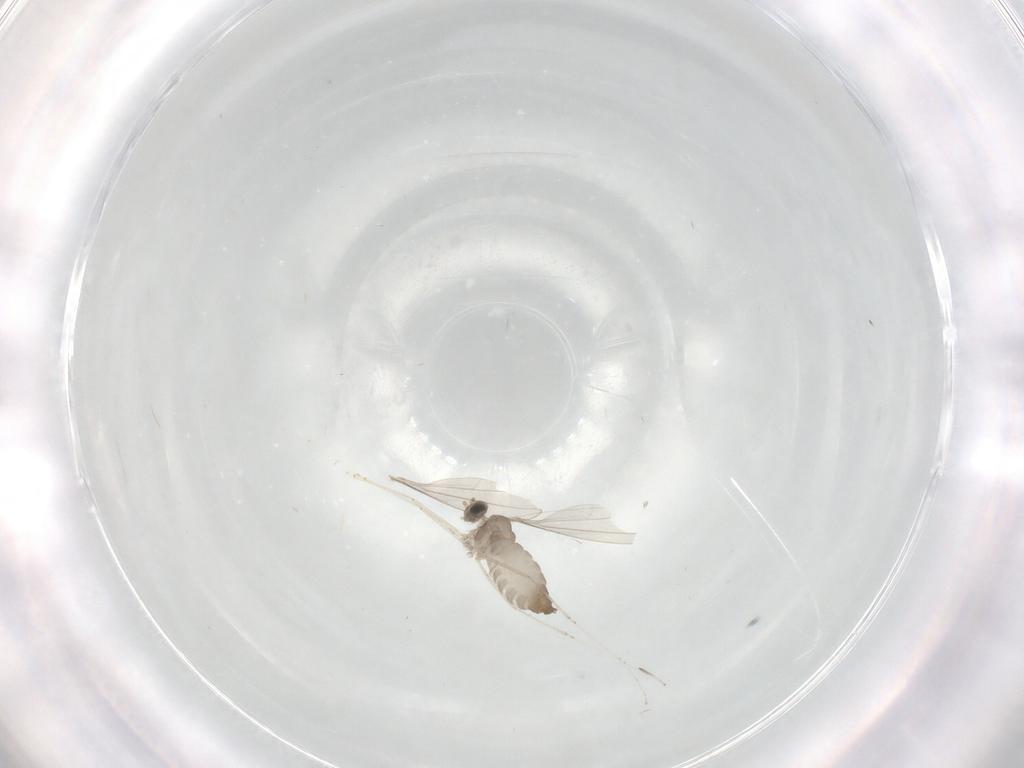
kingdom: Animalia
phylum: Arthropoda
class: Insecta
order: Diptera
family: Cecidomyiidae
